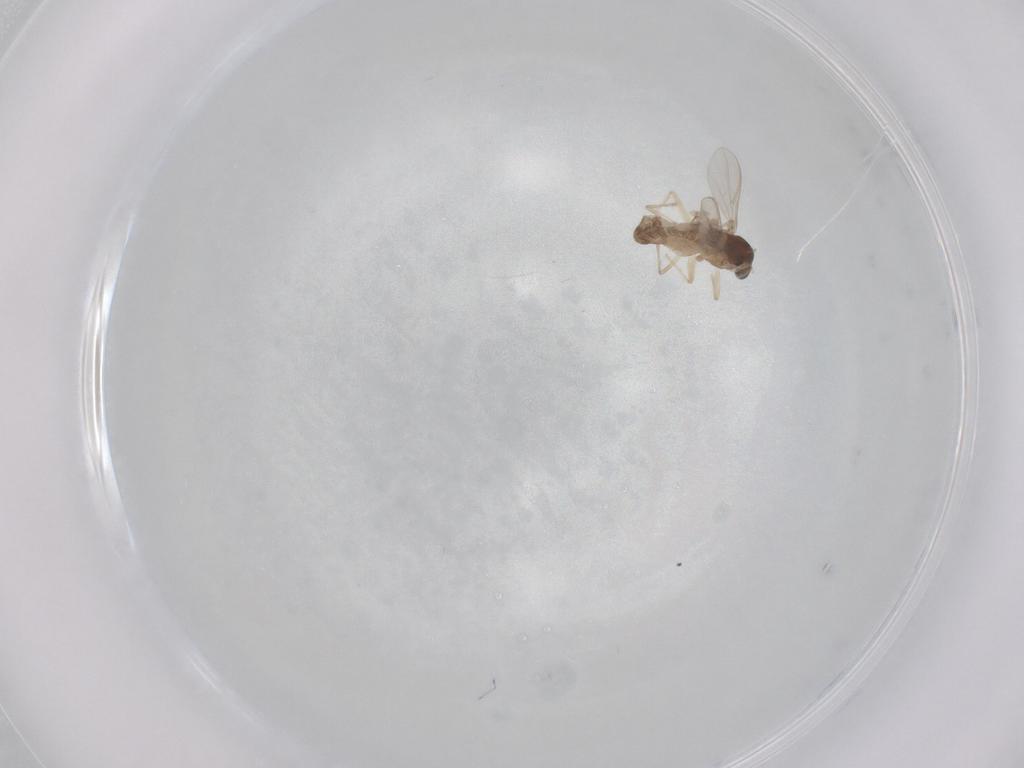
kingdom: Animalia
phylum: Arthropoda
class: Insecta
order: Diptera
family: Chironomidae
